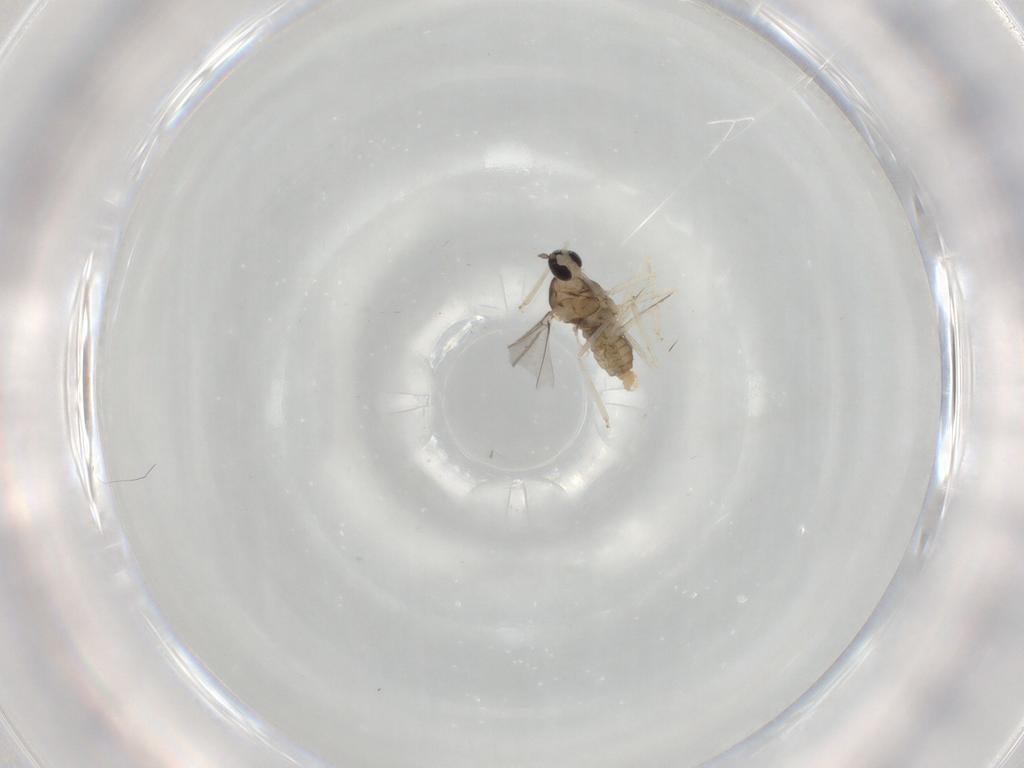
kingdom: Animalia
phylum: Arthropoda
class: Insecta
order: Diptera
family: Cecidomyiidae
